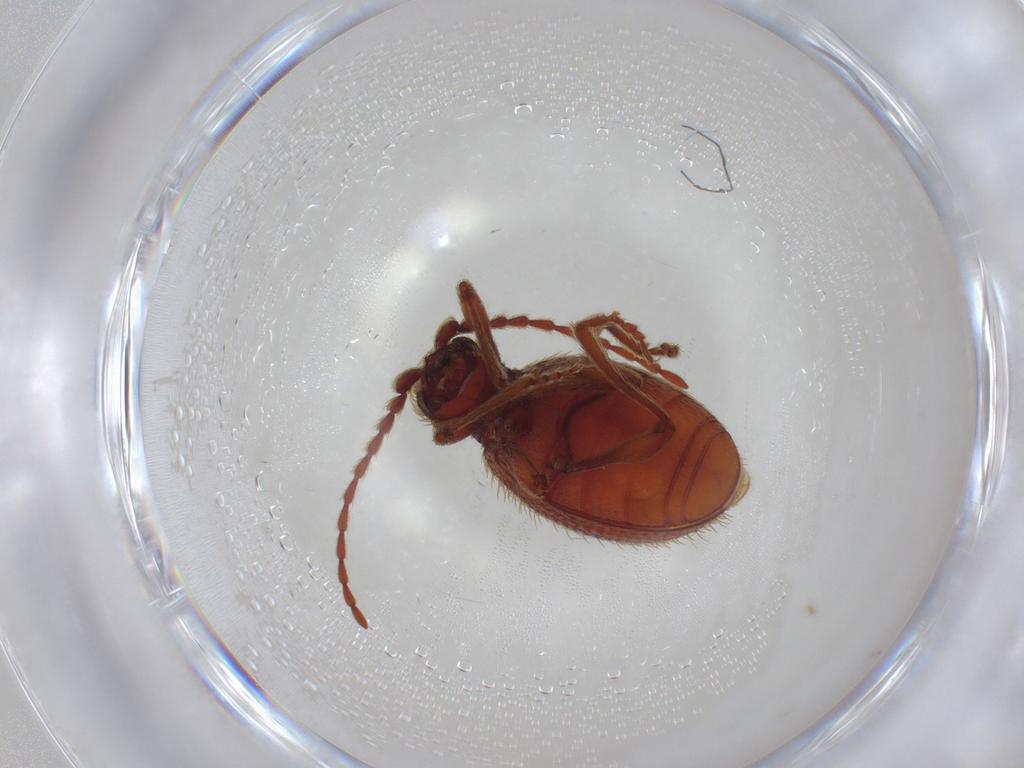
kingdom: Animalia
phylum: Arthropoda
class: Insecta
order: Coleoptera
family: Ptinidae
